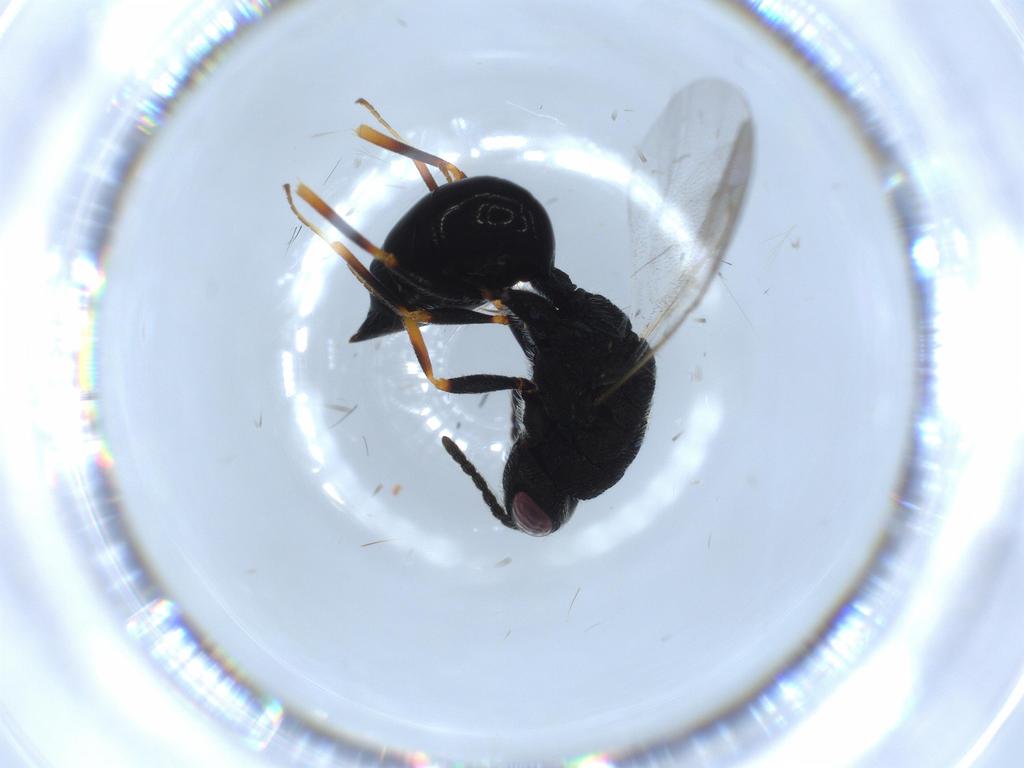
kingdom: Animalia
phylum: Arthropoda
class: Insecta
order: Hymenoptera
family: Eurytomidae
